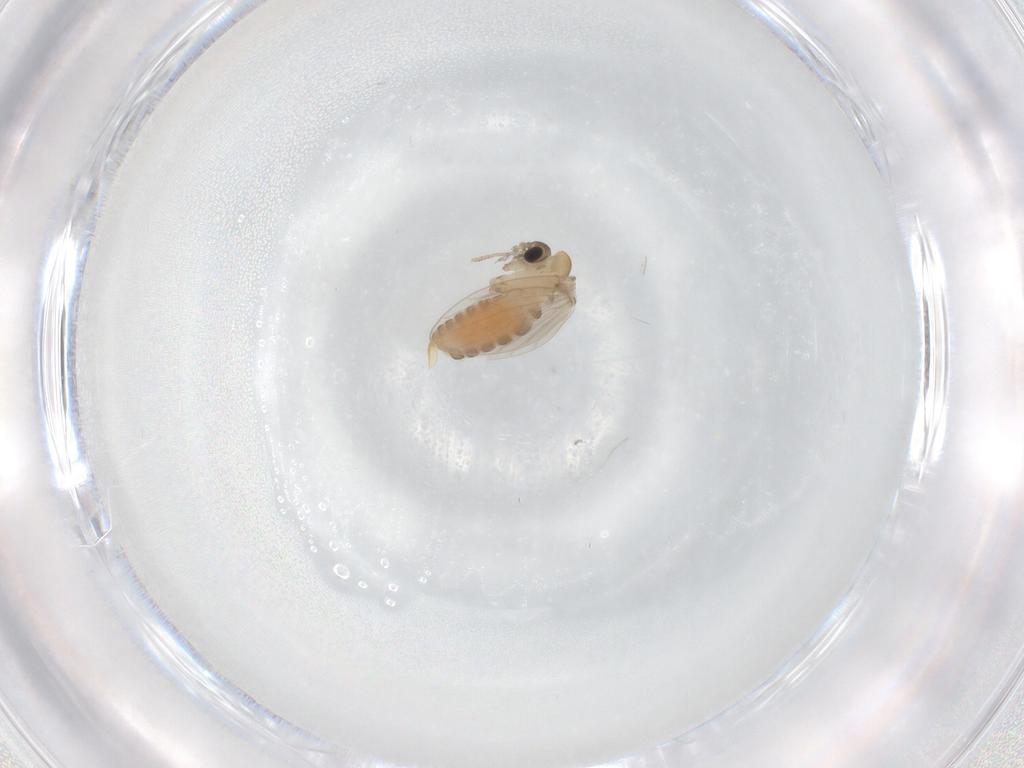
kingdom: Animalia
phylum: Arthropoda
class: Insecta
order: Diptera
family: Psychodidae
